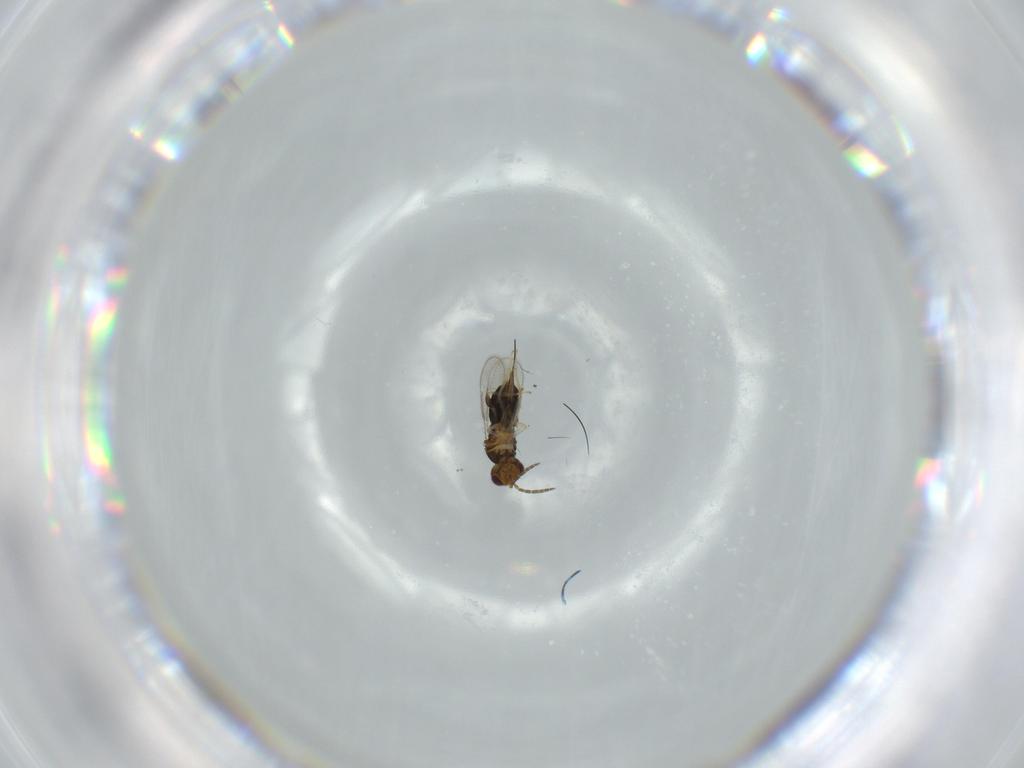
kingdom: Animalia
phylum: Arthropoda
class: Insecta
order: Hymenoptera
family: Aphelinidae
